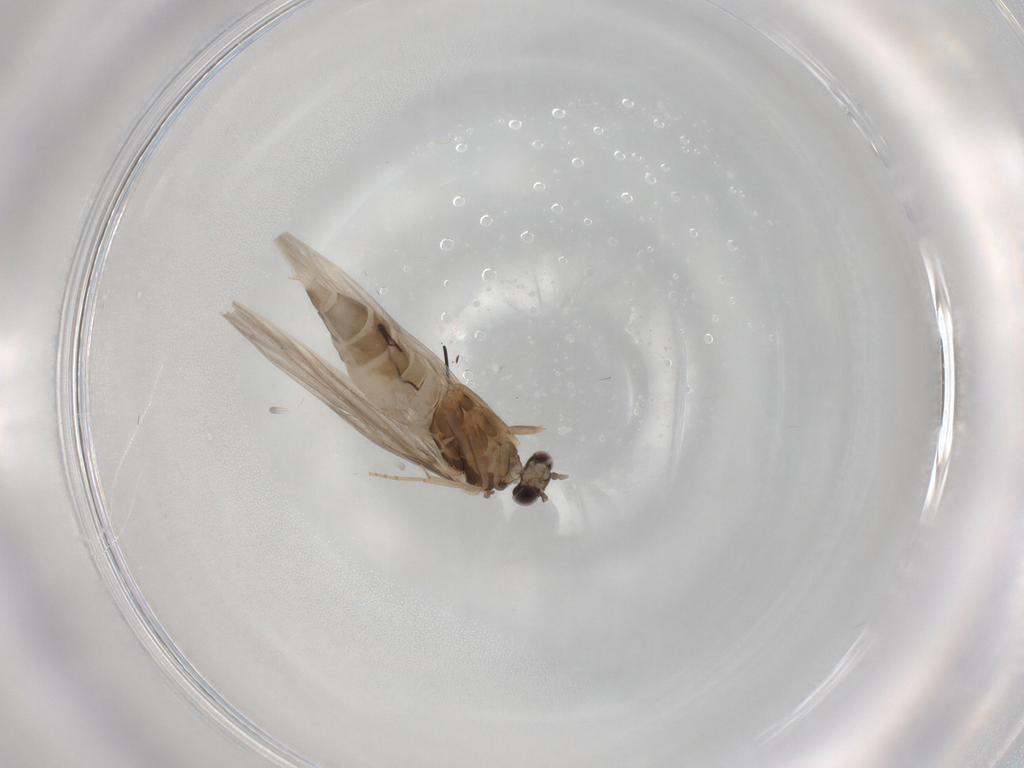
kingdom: Animalia
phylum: Arthropoda
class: Insecta
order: Trichoptera
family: Hydroptilidae
